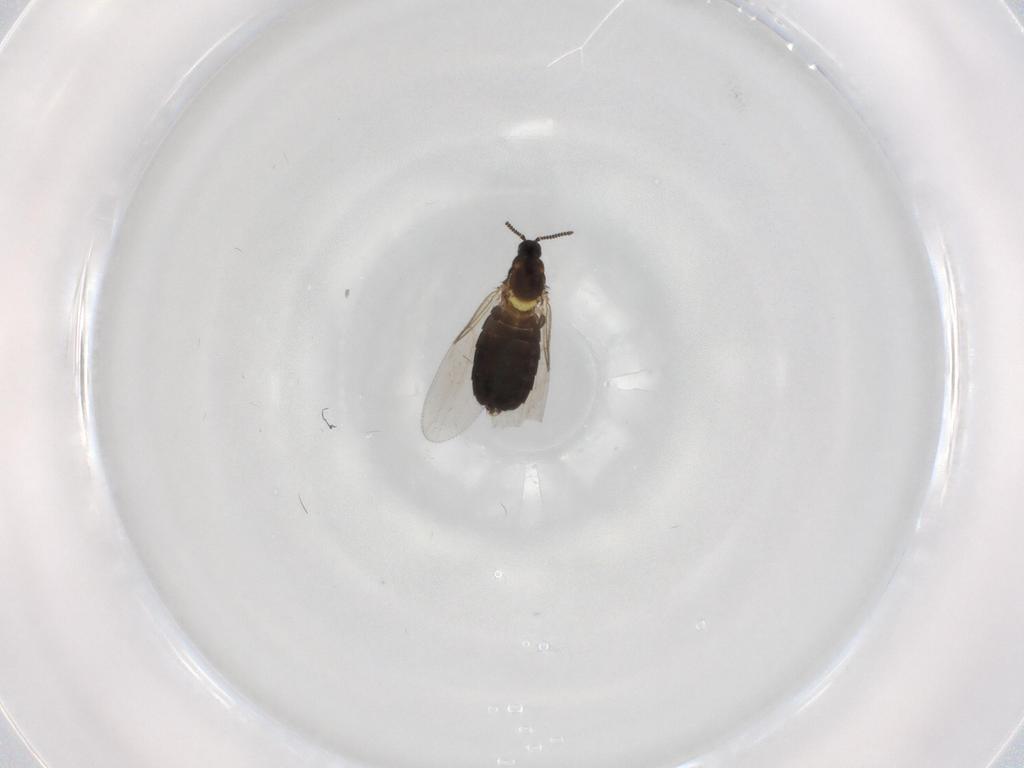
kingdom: Animalia
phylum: Arthropoda
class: Insecta
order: Diptera
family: Scatopsidae
